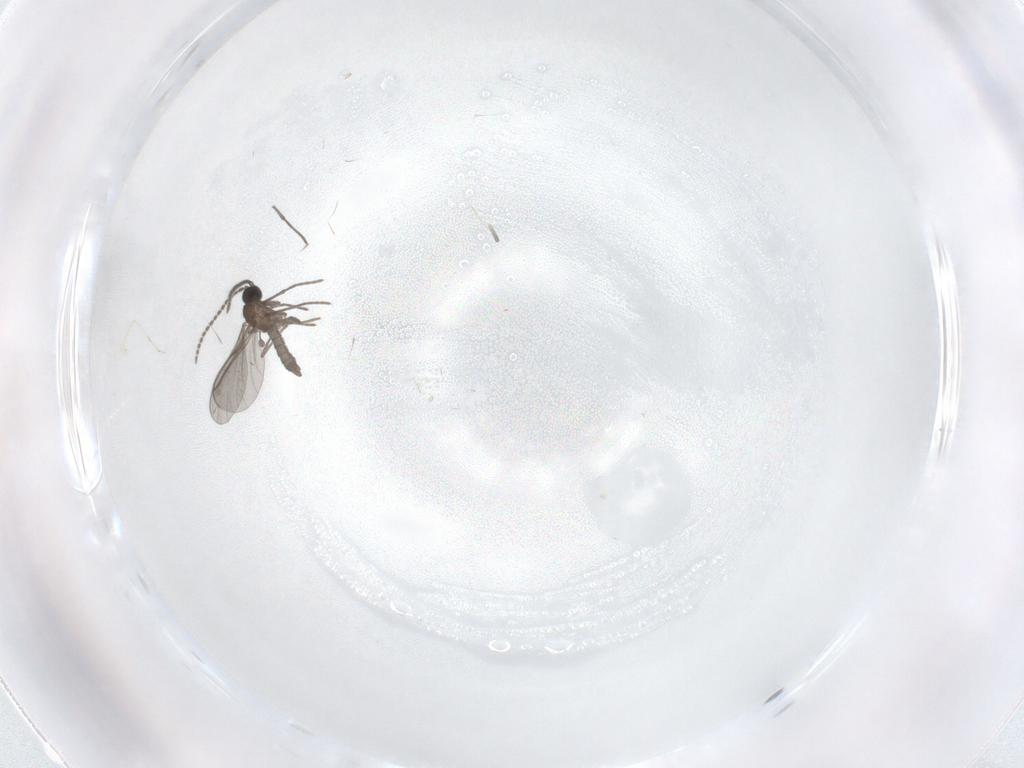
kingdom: Animalia
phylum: Arthropoda
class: Insecta
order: Diptera
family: Sciaridae
